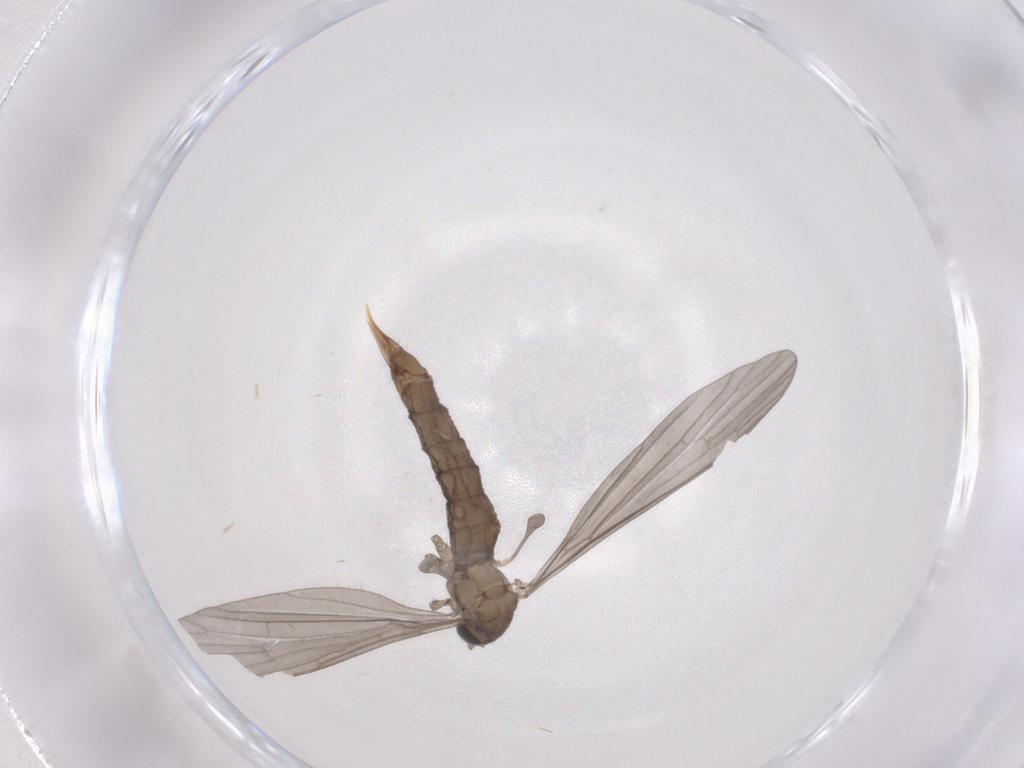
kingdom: Animalia
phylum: Arthropoda
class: Insecta
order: Diptera
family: Limoniidae
